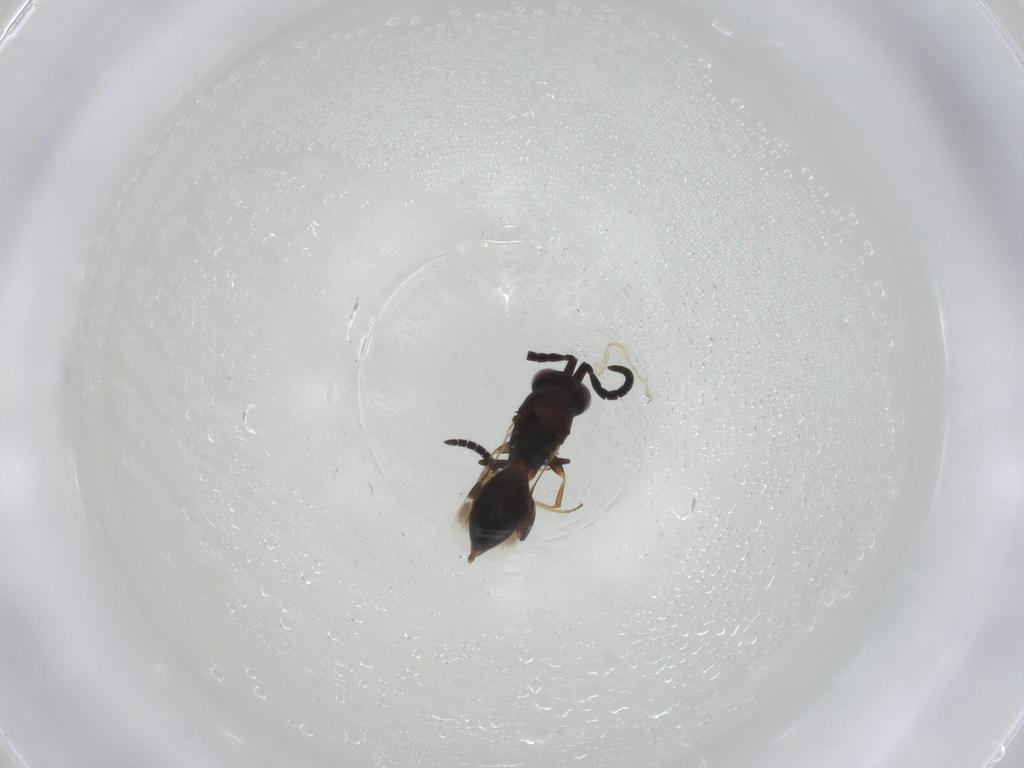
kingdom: Animalia
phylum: Arthropoda
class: Insecta
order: Hymenoptera
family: Megaspilidae
